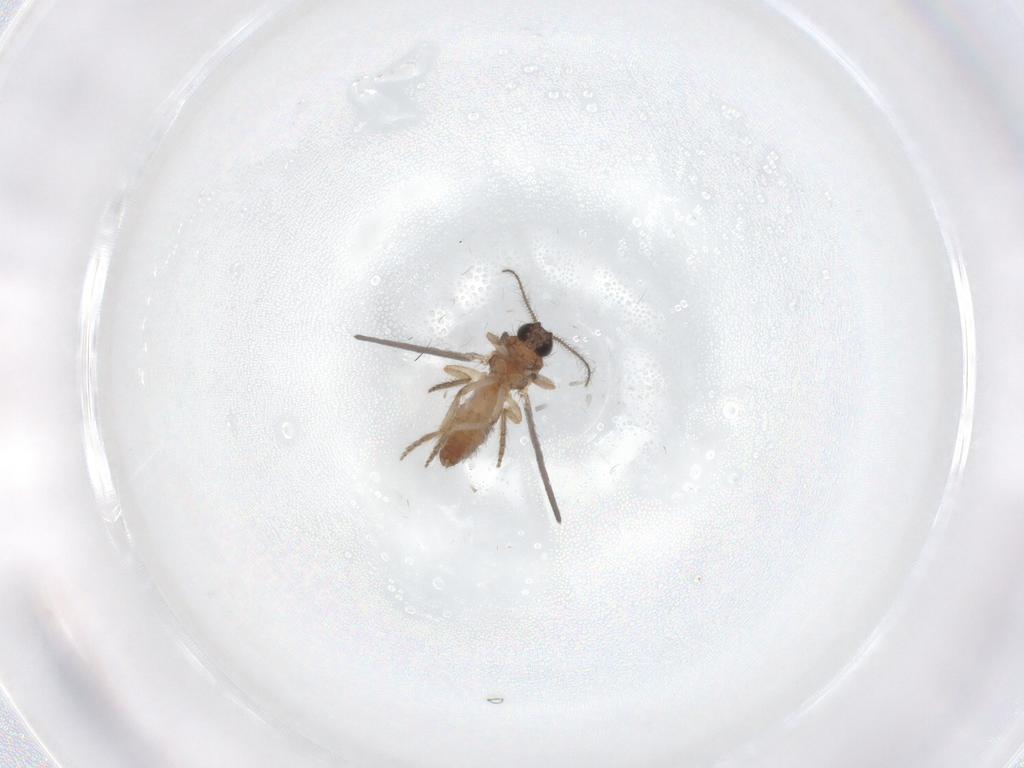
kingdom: Animalia
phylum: Arthropoda
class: Insecta
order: Diptera
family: Ceratopogonidae
